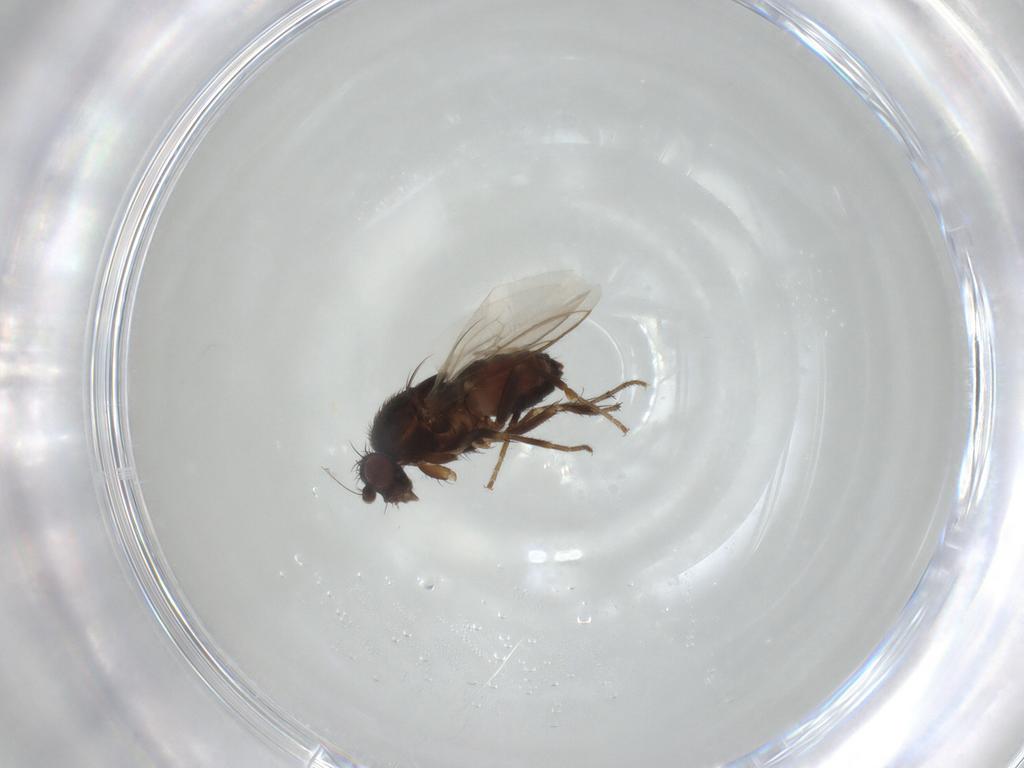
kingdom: Animalia
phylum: Arthropoda
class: Insecta
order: Diptera
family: Sphaeroceridae
